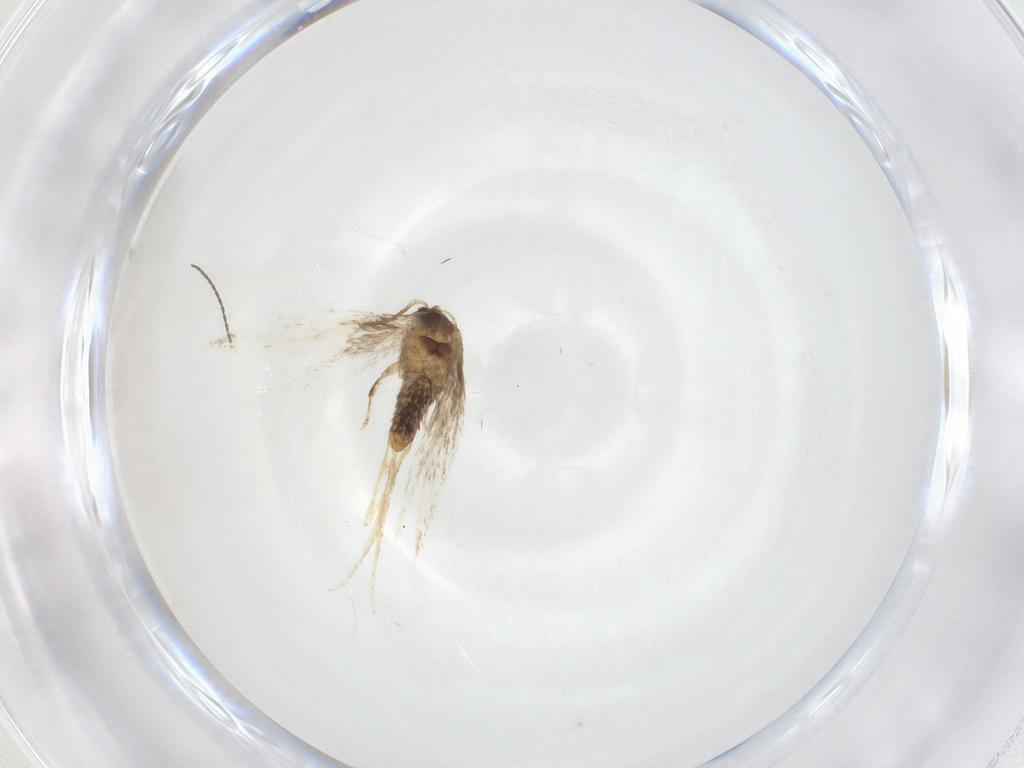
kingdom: Animalia
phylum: Arthropoda
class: Insecta
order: Lepidoptera
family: Nepticulidae
